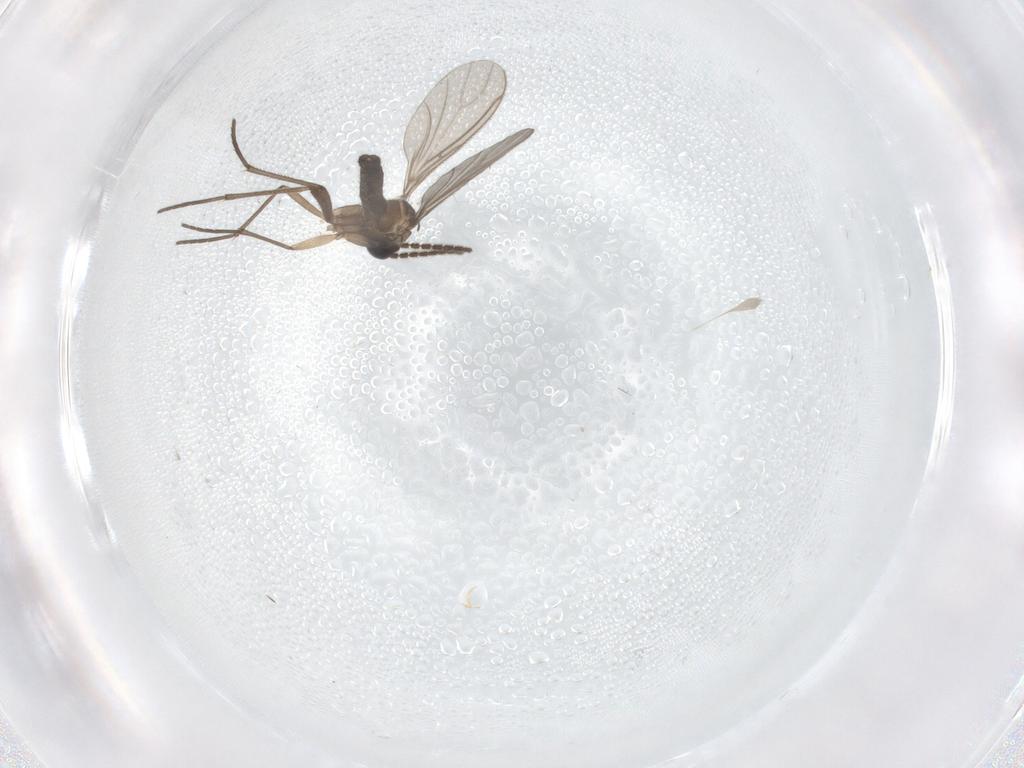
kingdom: Animalia
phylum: Arthropoda
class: Insecta
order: Diptera
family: Sciaridae
